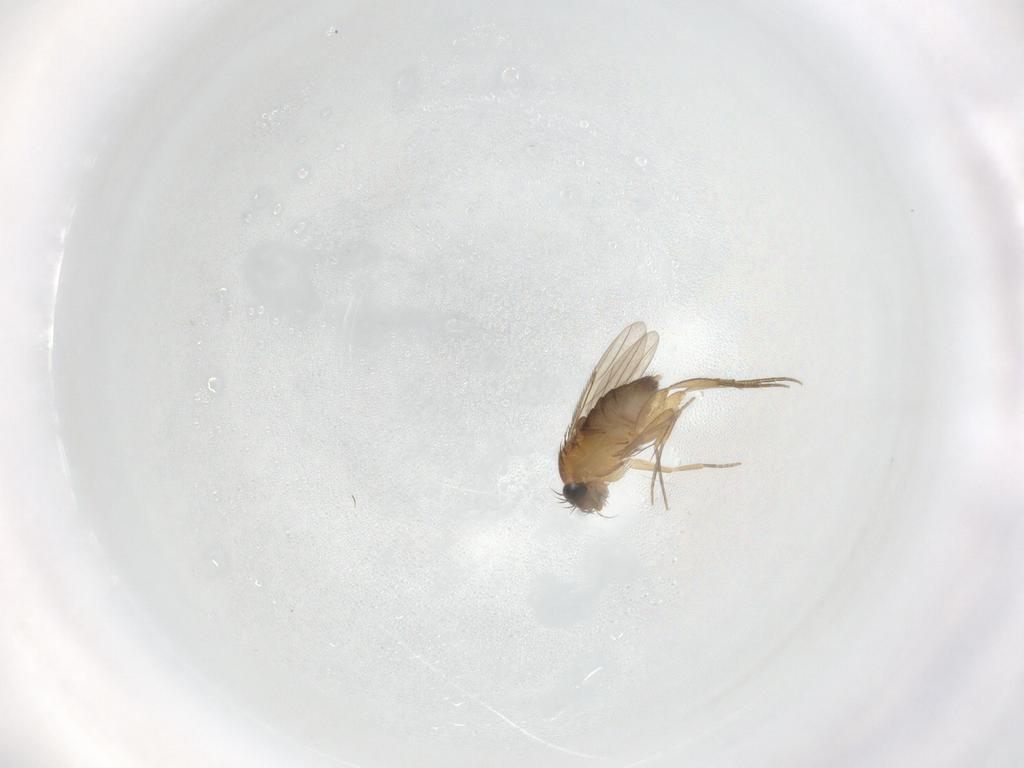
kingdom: Animalia
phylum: Arthropoda
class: Insecta
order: Diptera
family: Phoridae
